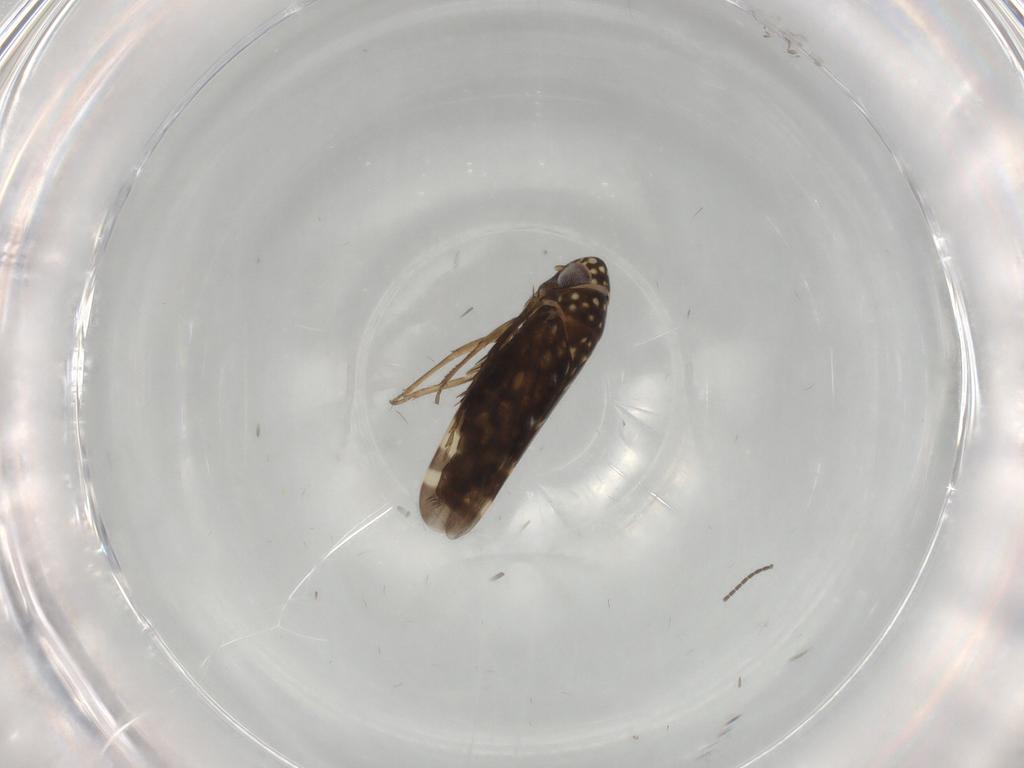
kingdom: Animalia
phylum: Arthropoda
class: Insecta
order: Hemiptera
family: Cicadellidae
